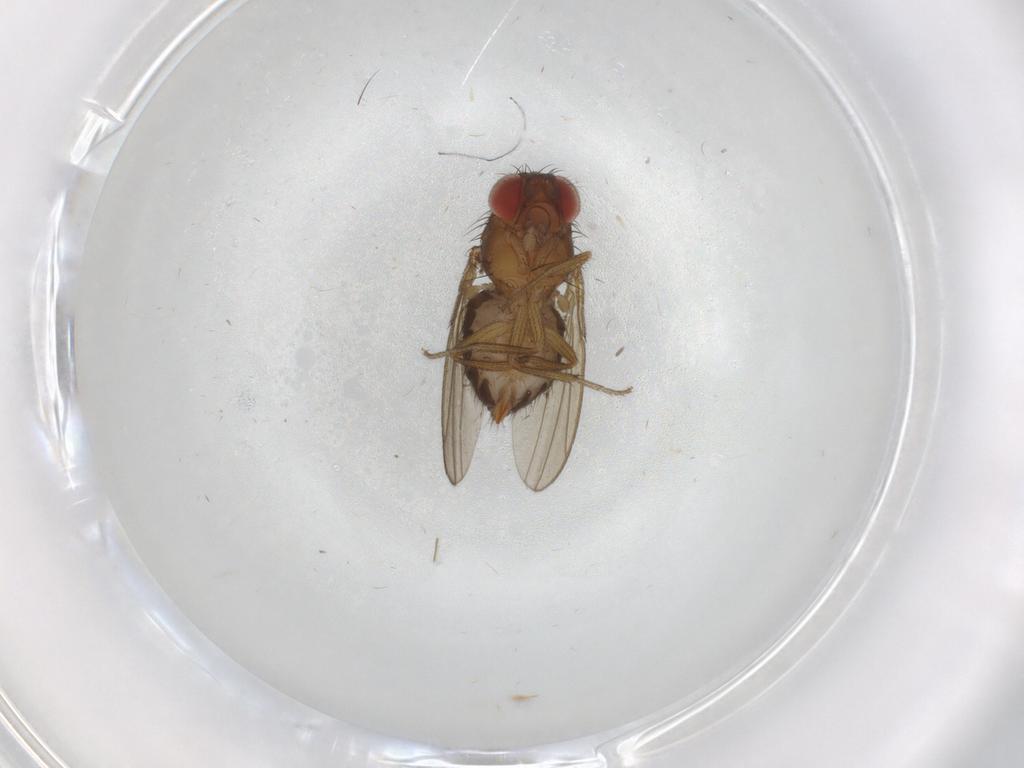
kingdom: Animalia
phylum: Arthropoda
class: Insecta
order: Diptera
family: Drosophilidae
